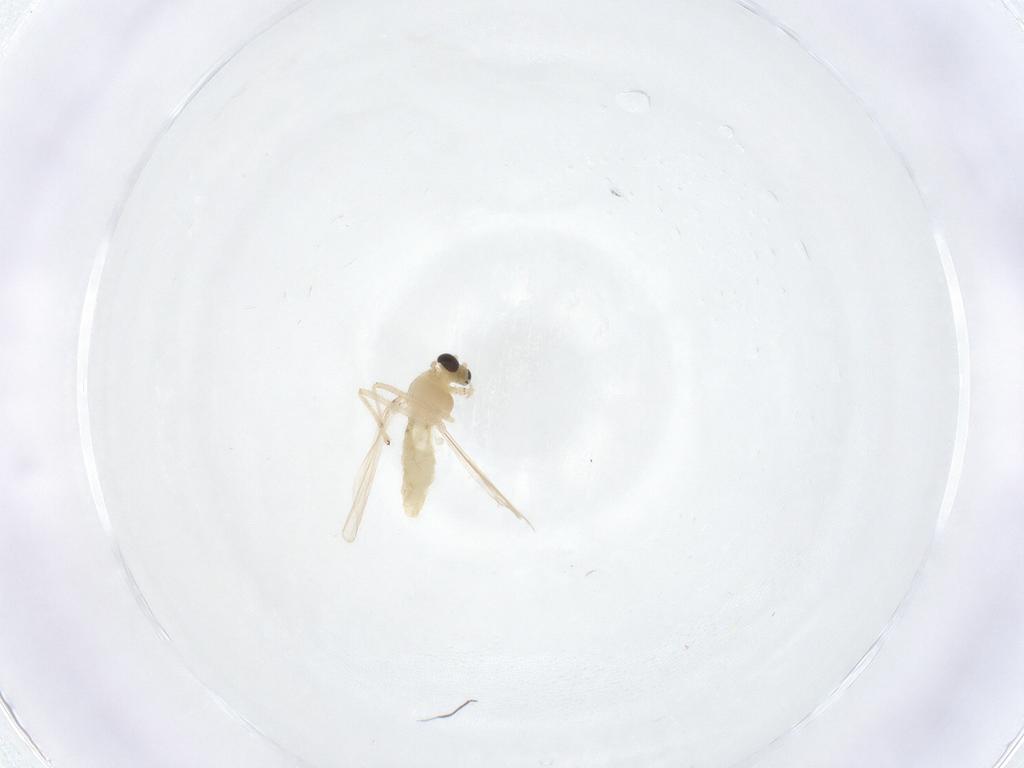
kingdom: Animalia
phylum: Arthropoda
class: Insecta
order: Diptera
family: Chironomidae
